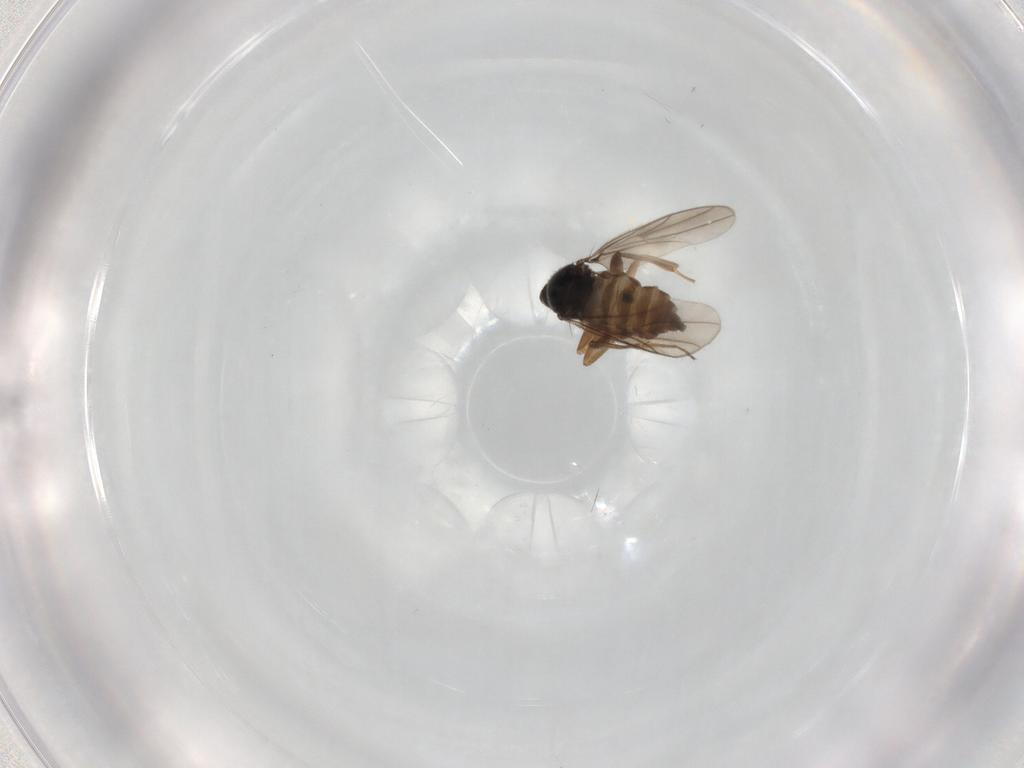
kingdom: Animalia
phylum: Arthropoda
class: Insecta
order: Diptera
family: Hybotidae
